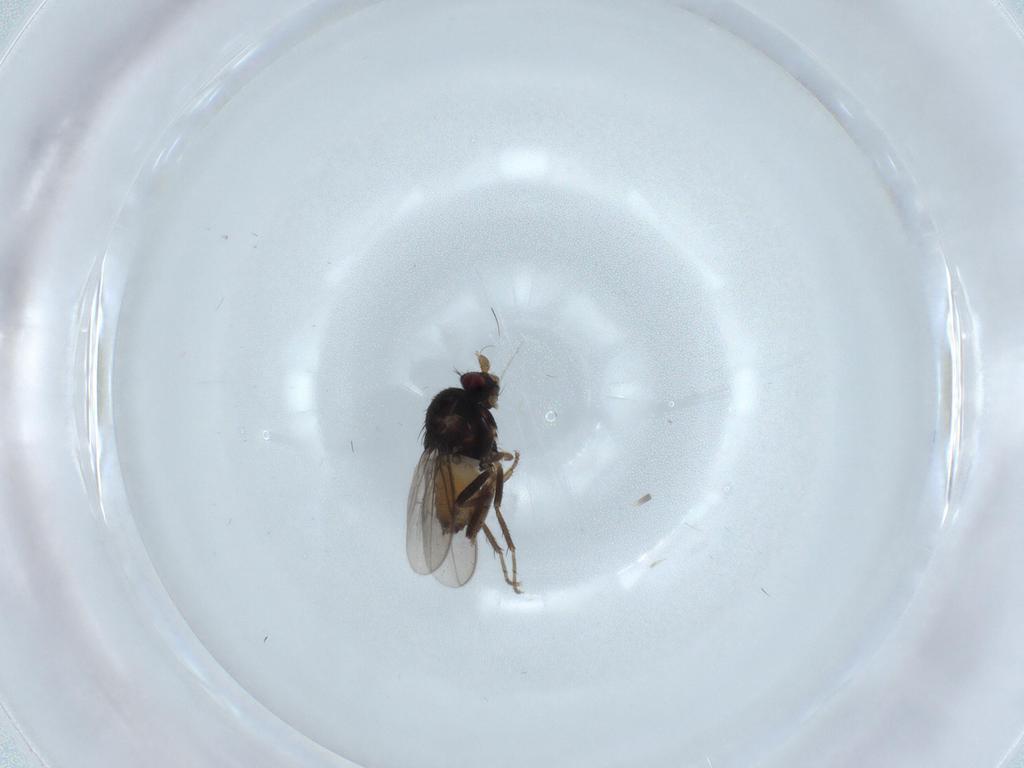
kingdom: Animalia
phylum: Arthropoda
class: Insecta
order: Diptera
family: Sphaeroceridae
